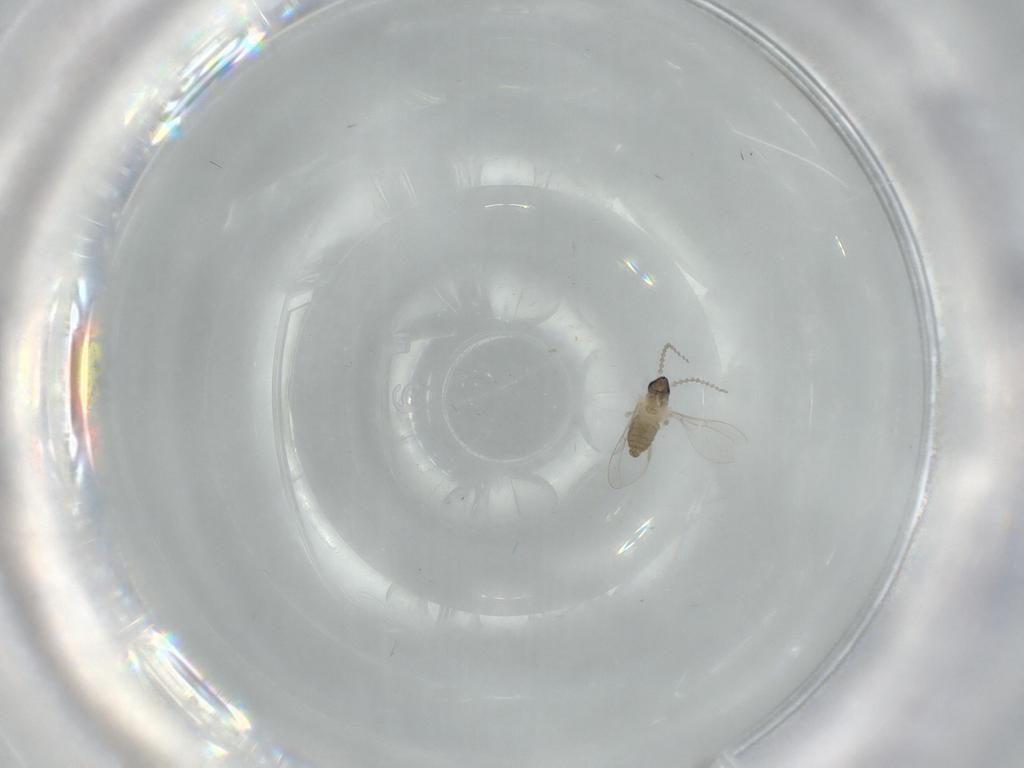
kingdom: Animalia
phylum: Arthropoda
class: Insecta
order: Diptera
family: Cecidomyiidae
